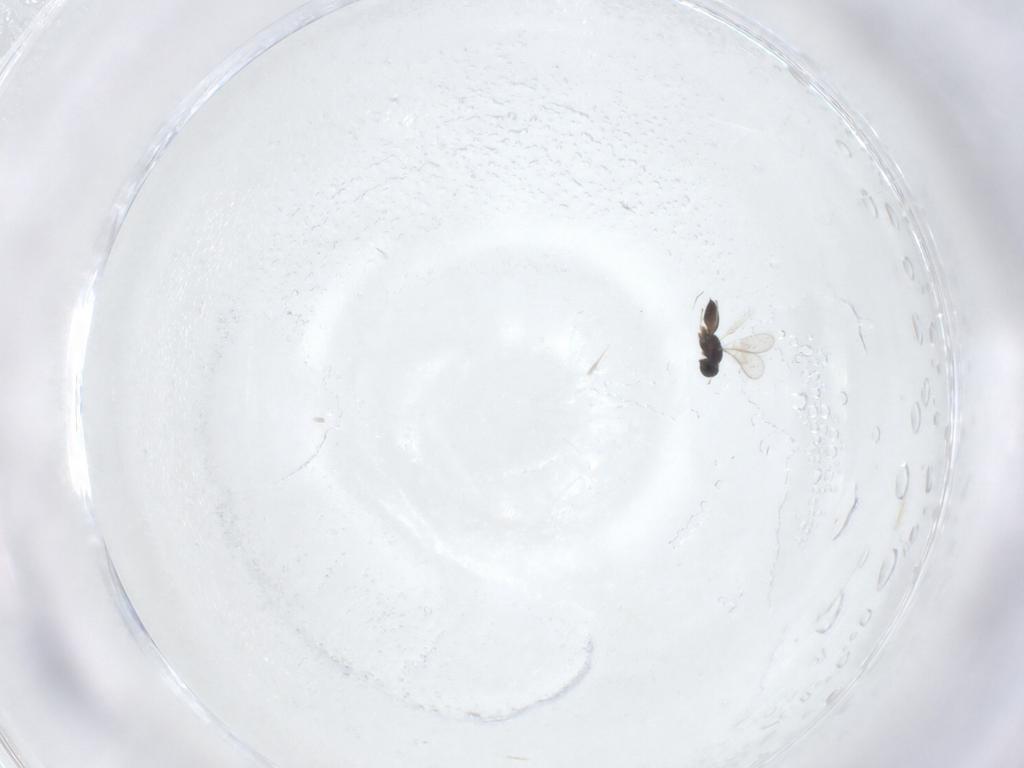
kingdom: Animalia
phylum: Arthropoda
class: Insecta
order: Hymenoptera
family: Scelionidae
